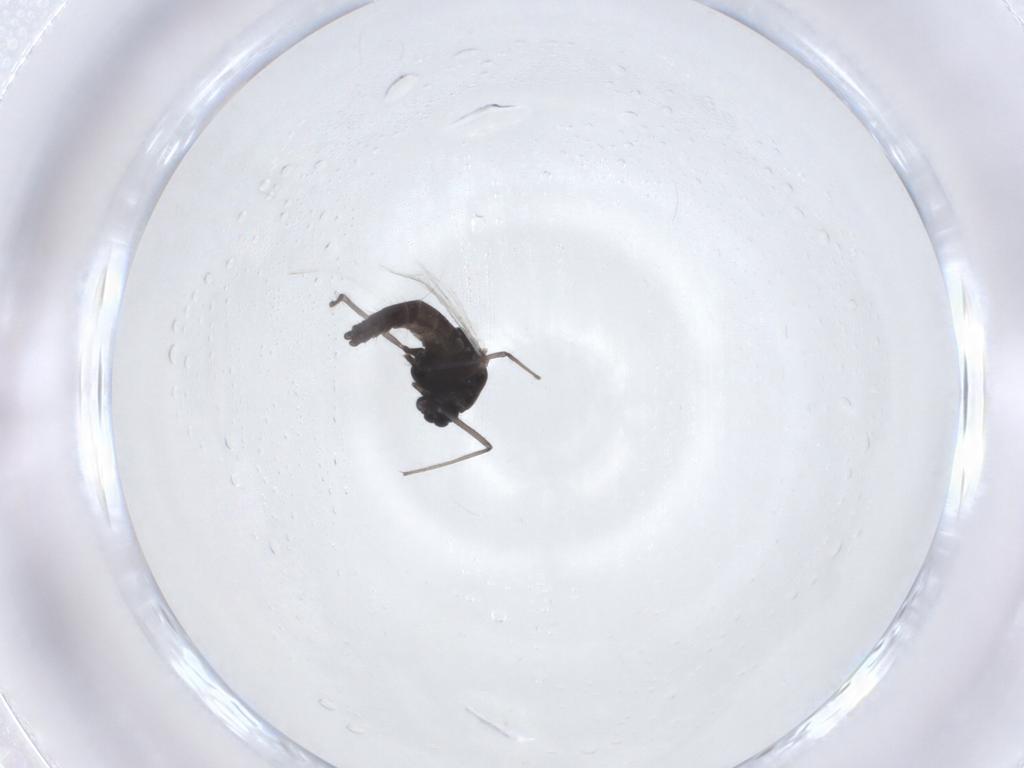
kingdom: Animalia
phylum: Arthropoda
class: Insecta
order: Diptera
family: Chironomidae
